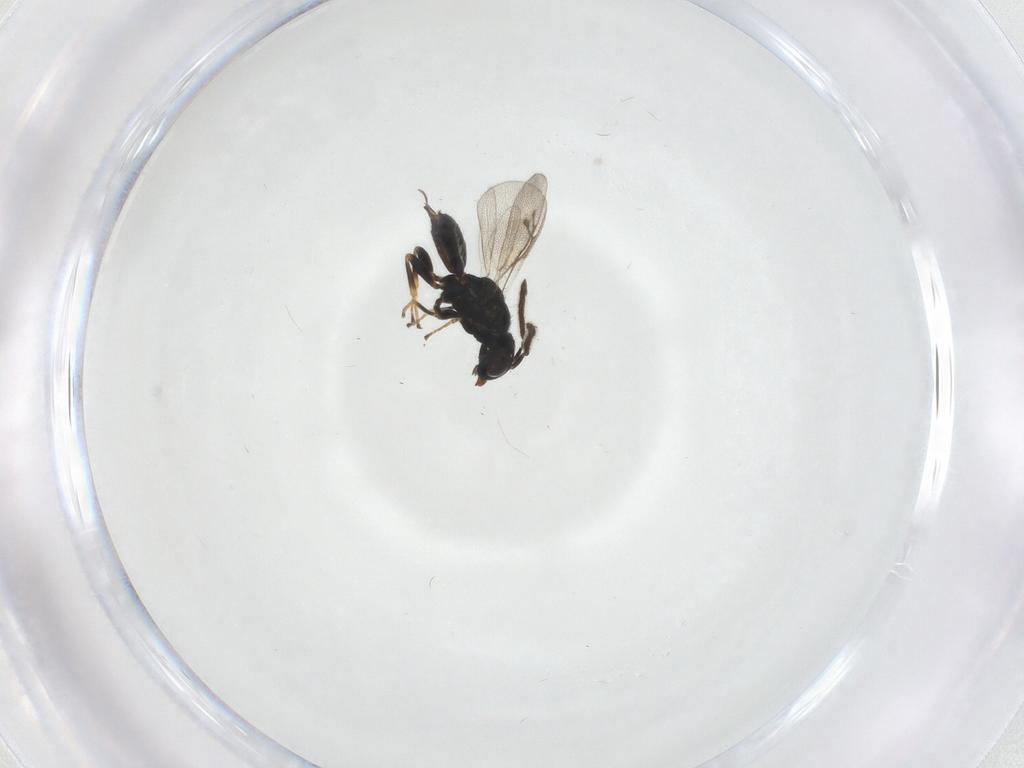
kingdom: Animalia
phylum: Arthropoda
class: Insecta
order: Hymenoptera
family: Pteromalidae
